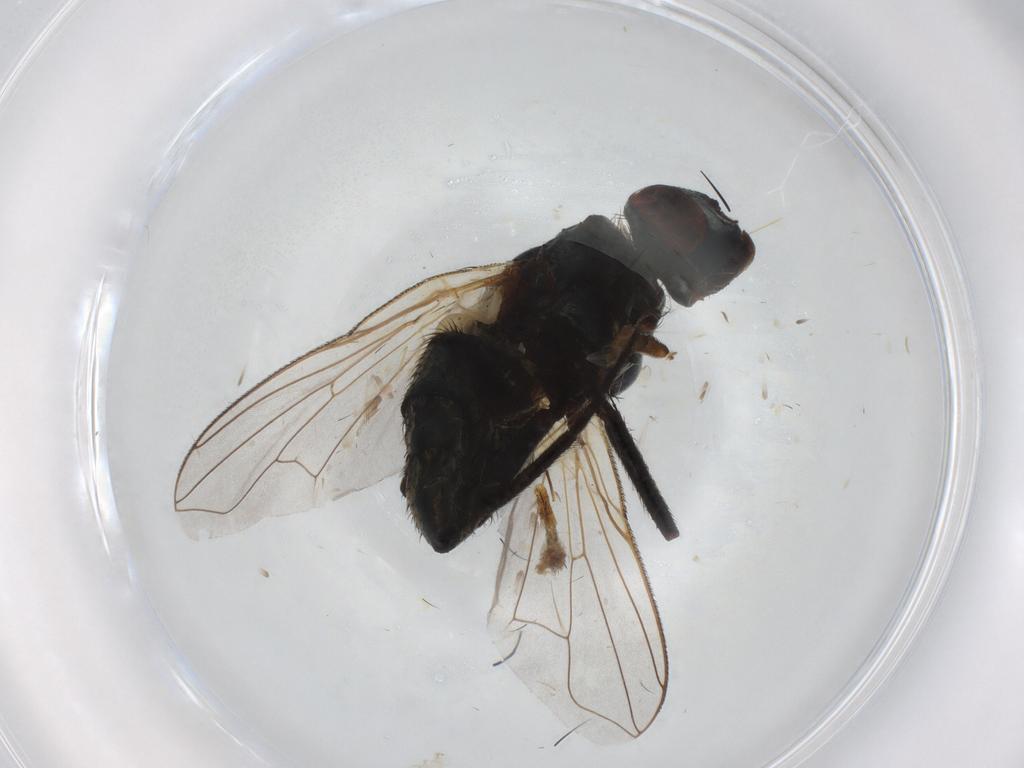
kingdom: Animalia
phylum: Arthropoda
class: Insecta
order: Diptera
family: Muscidae
